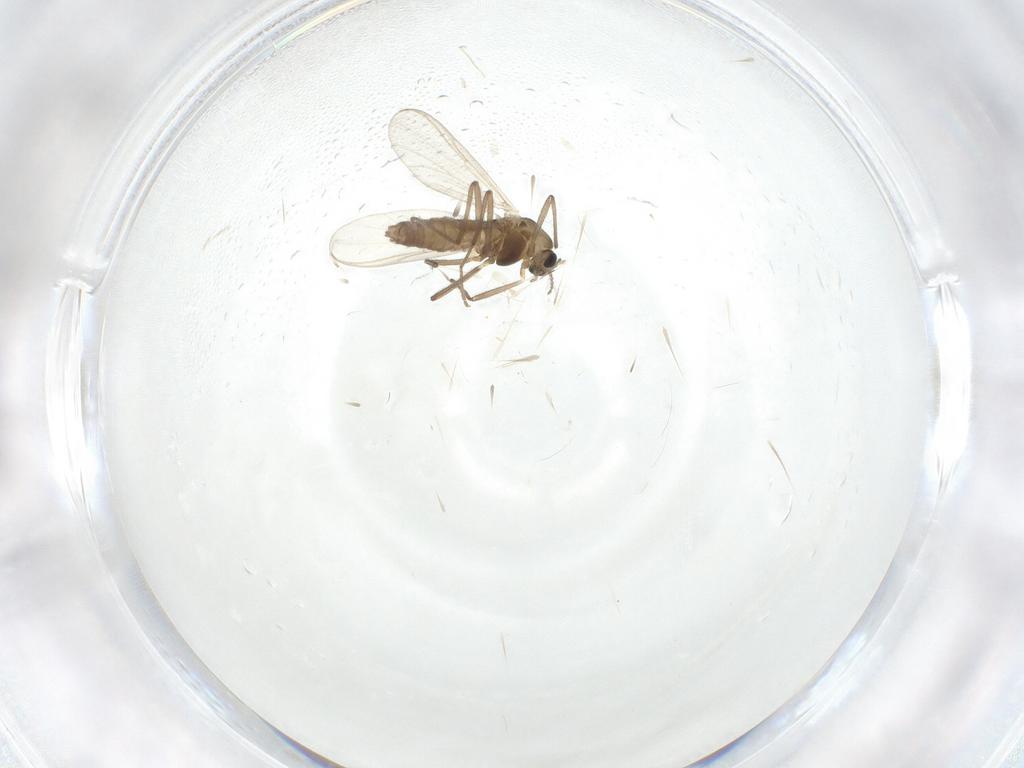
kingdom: Animalia
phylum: Arthropoda
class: Insecta
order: Diptera
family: Chironomidae
